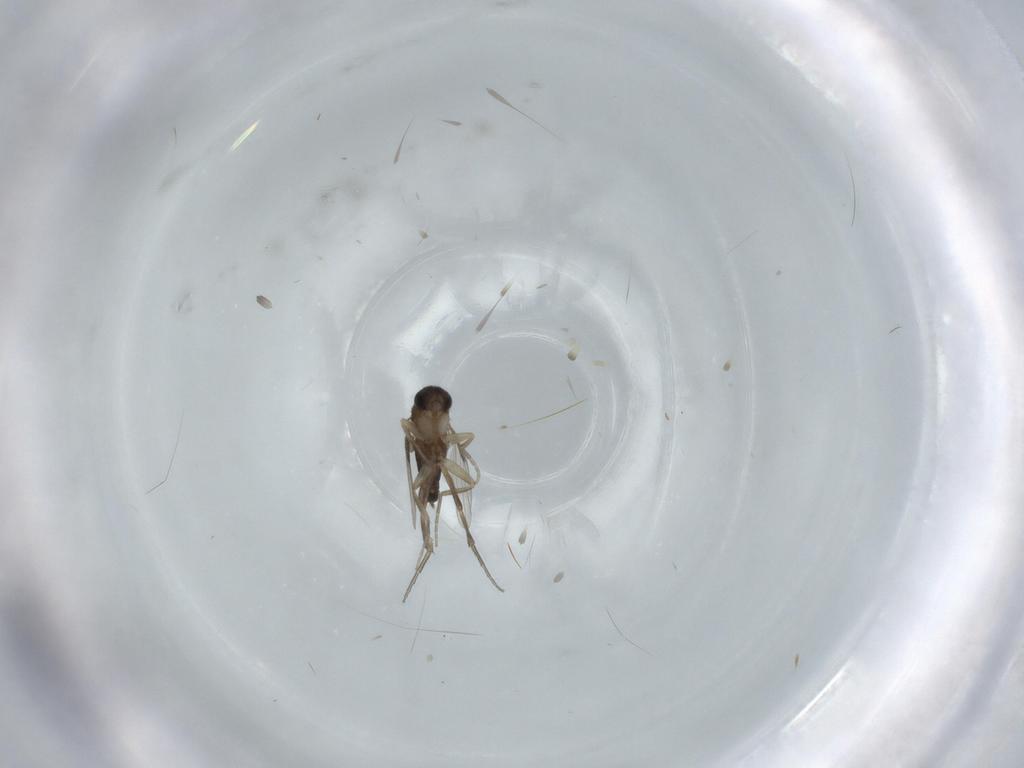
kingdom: Animalia
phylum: Arthropoda
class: Insecta
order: Diptera
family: Phoridae
